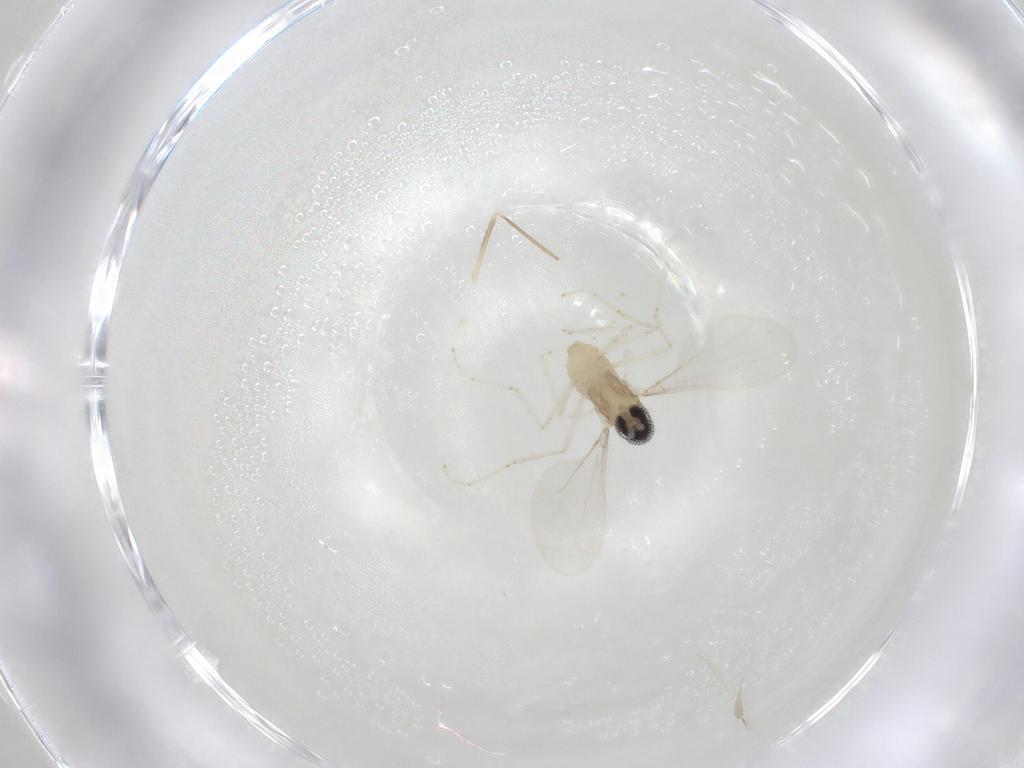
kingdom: Animalia
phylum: Arthropoda
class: Insecta
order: Diptera
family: Cecidomyiidae
